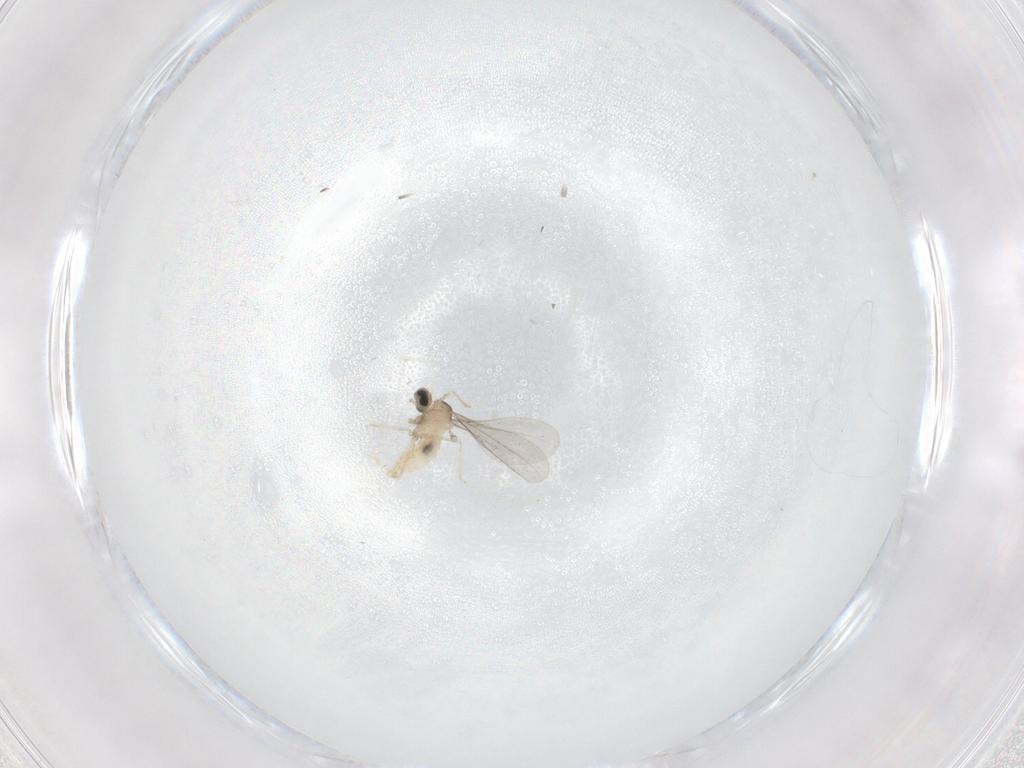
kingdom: Animalia
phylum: Arthropoda
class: Insecta
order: Diptera
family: Cecidomyiidae
